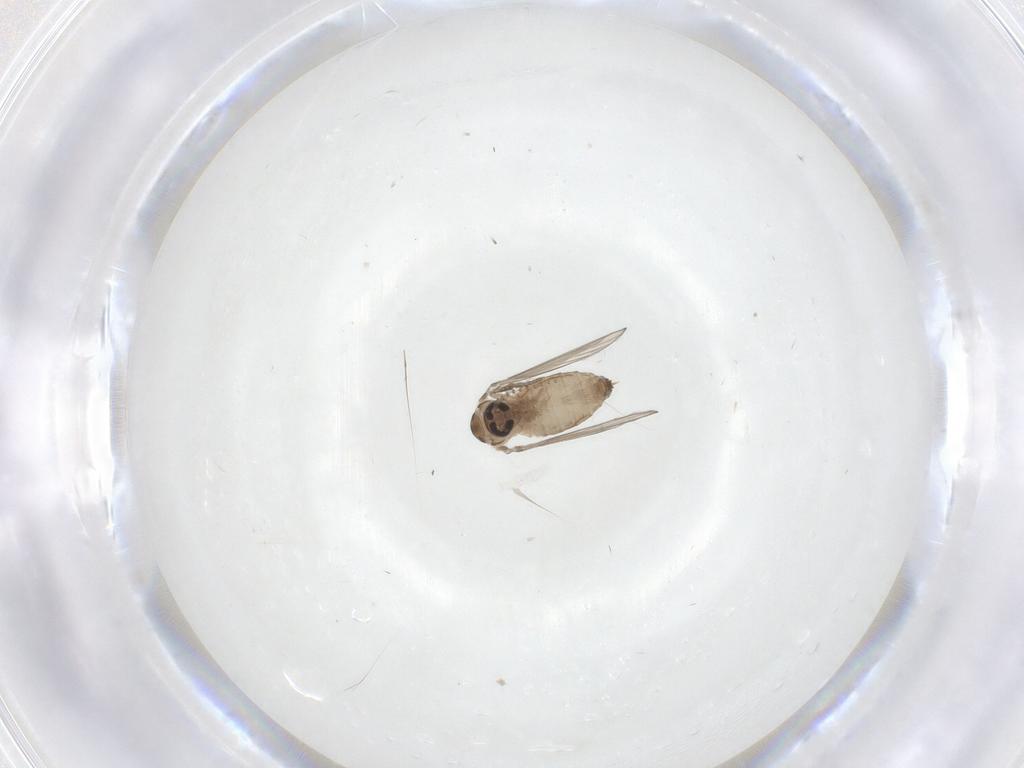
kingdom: Animalia
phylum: Arthropoda
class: Insecta
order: Diptera
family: Psychodidae
